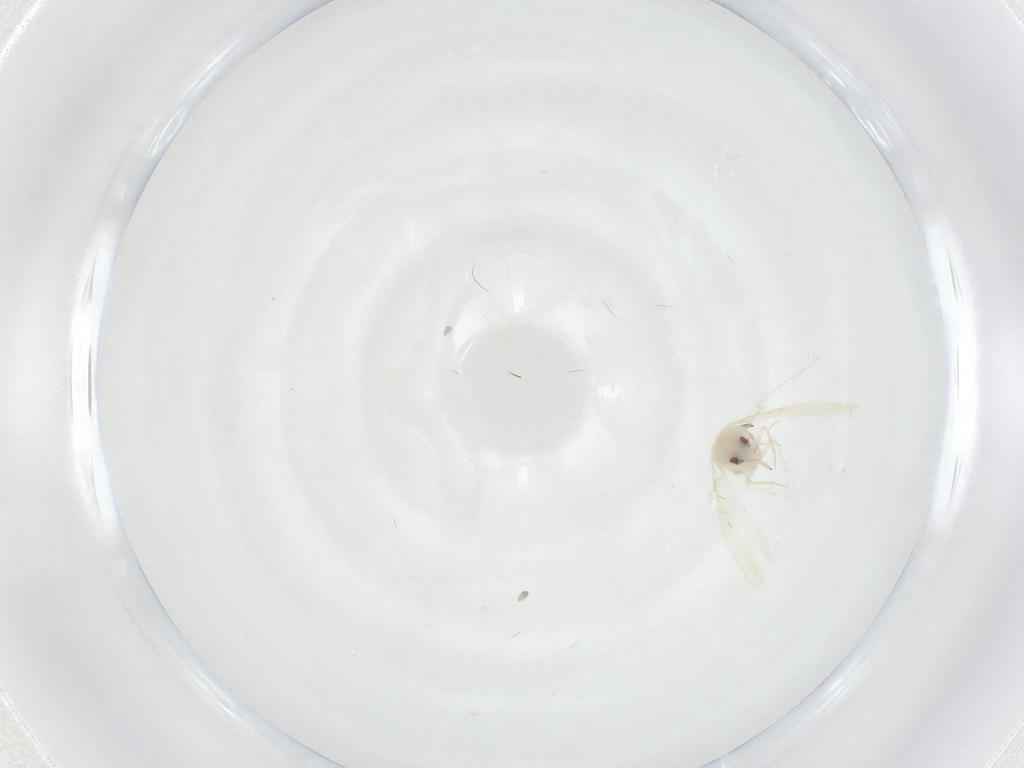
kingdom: Animalia
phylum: Arthropoda
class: Insecta
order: Hemiptera
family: Aleyrodidae
